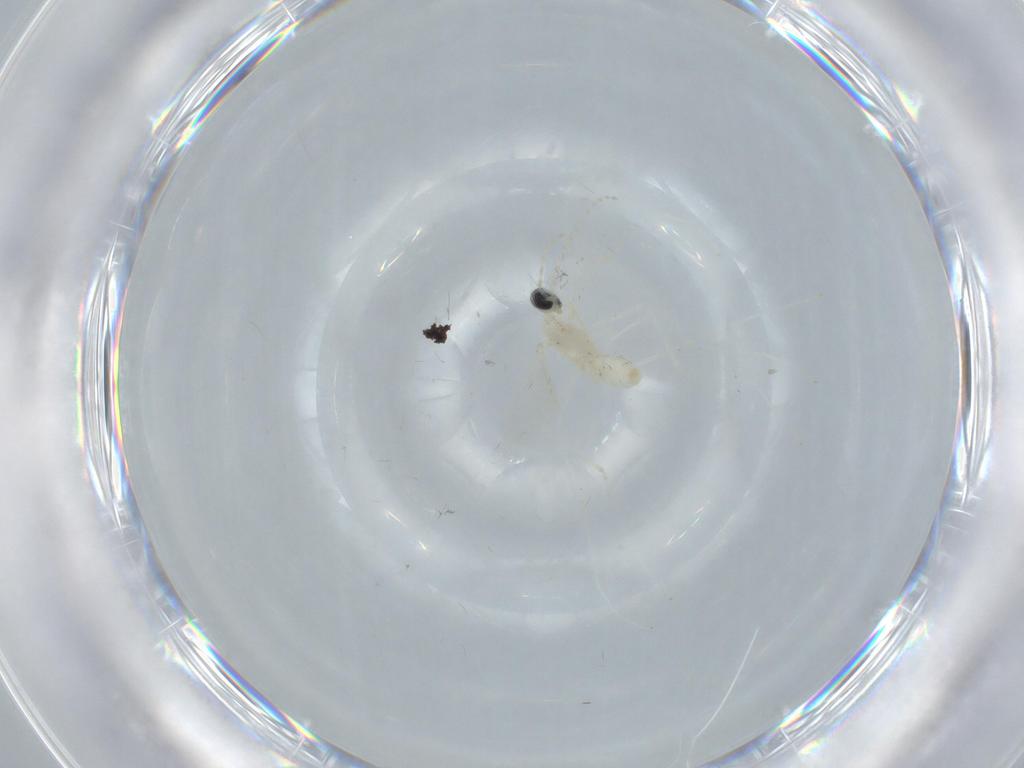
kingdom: Animalia
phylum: Arthropoda
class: Insecta
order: Diptera
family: Cecidomyiidae
